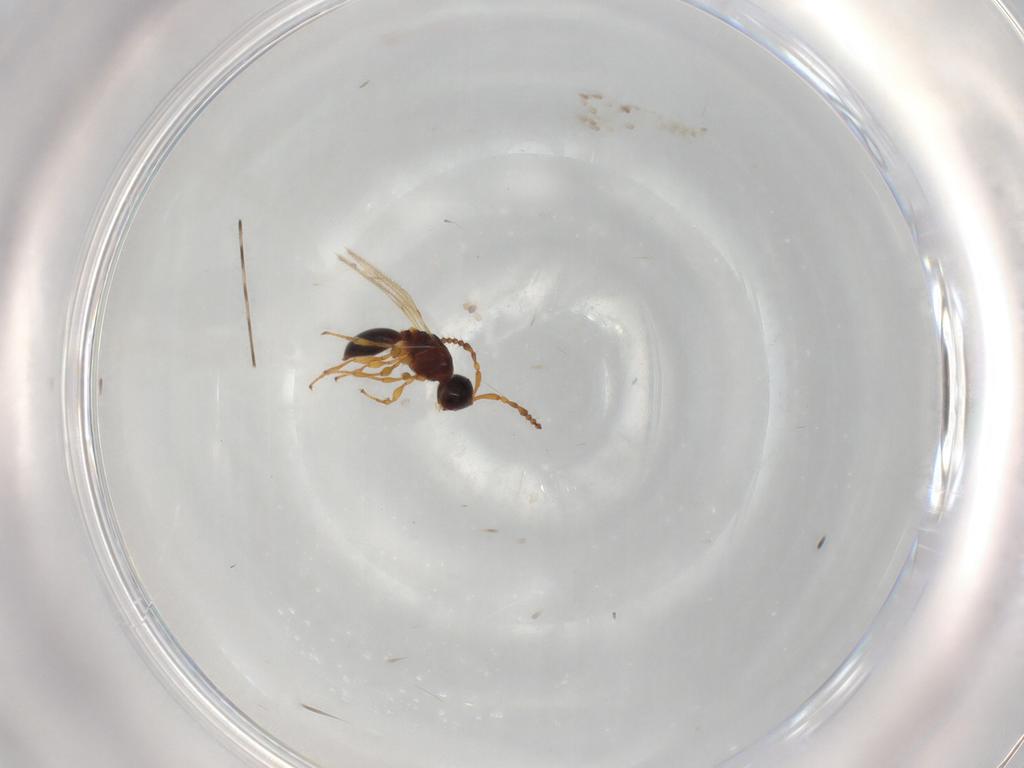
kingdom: Animalia
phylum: Arthropoda
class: Insecta
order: Hymenoptera
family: Diapriidae
